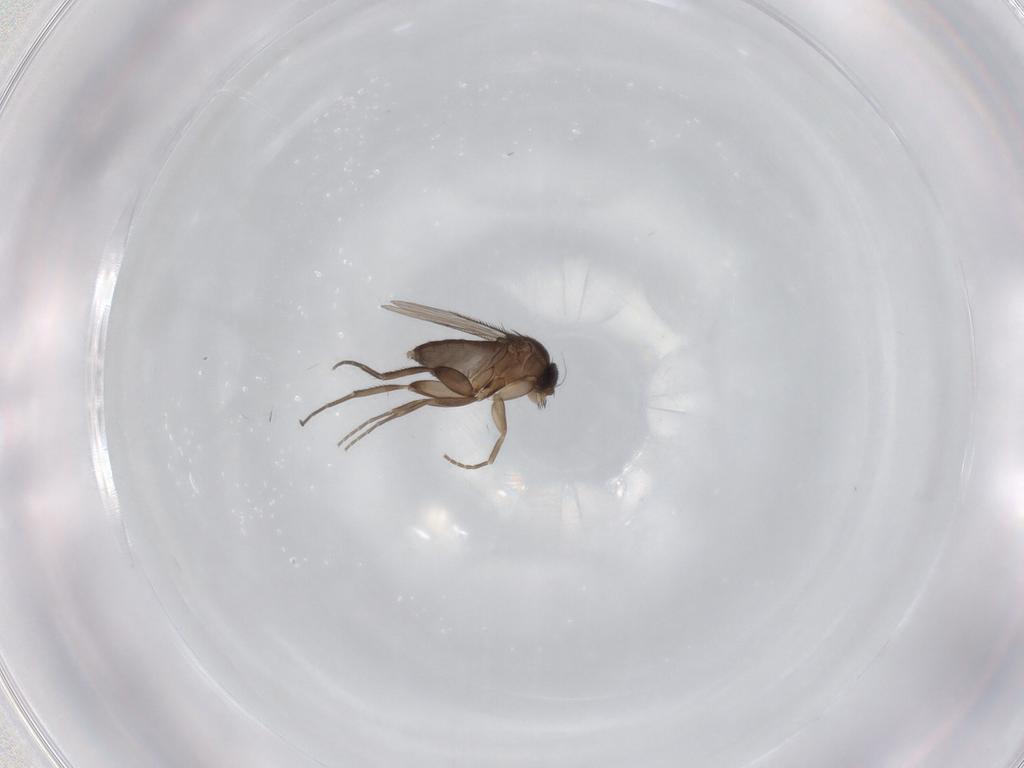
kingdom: Animalia
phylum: Arthropoda
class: Insecta
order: Diptera
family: Phoridae
